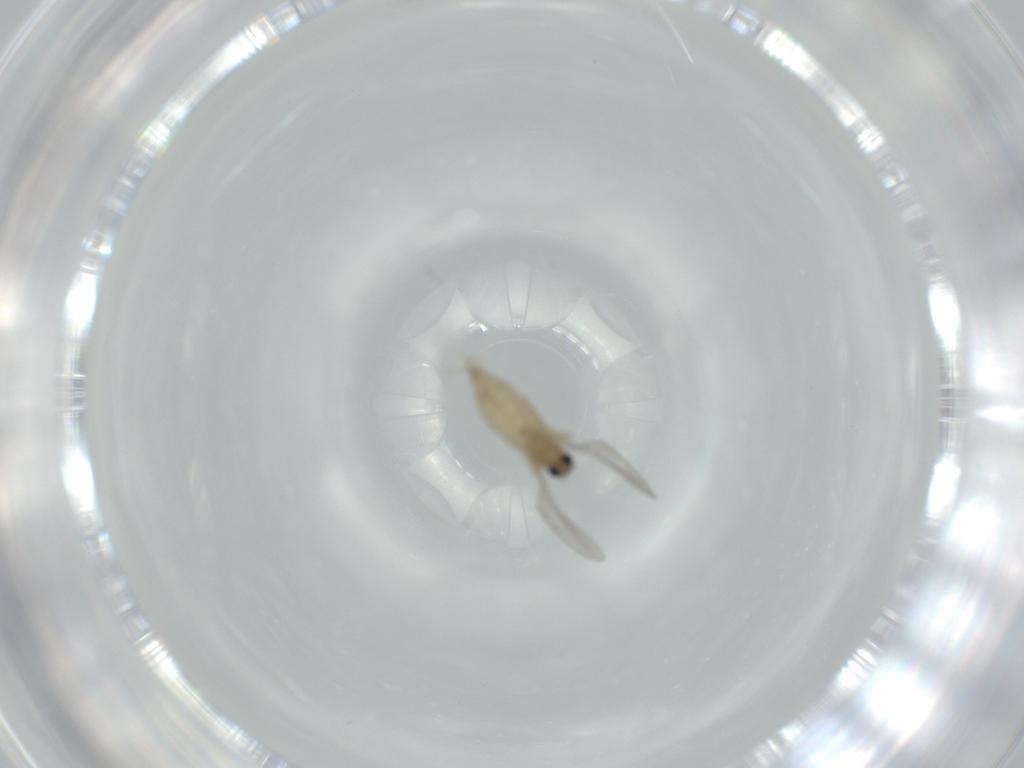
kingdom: Animalia
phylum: Arthropoda
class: Insecta
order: Diptera
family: Cecidomyiidae
